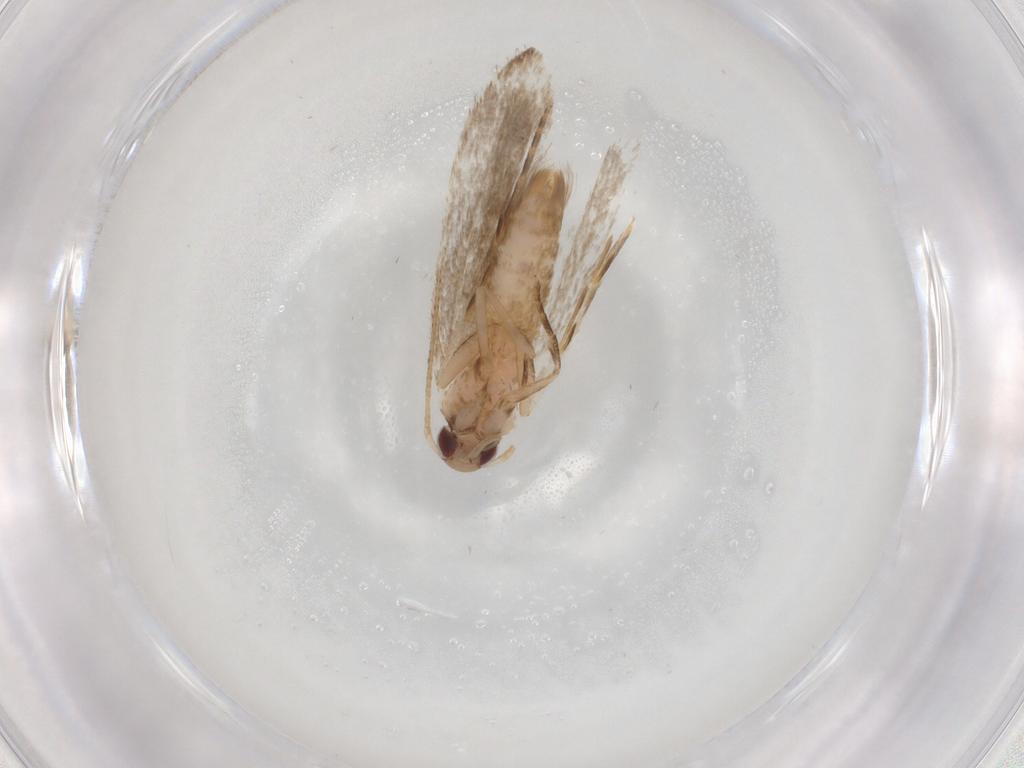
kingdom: Animalia
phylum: Arthropoda
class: Insecta
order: Lepidoptera
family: Gelechiidae
